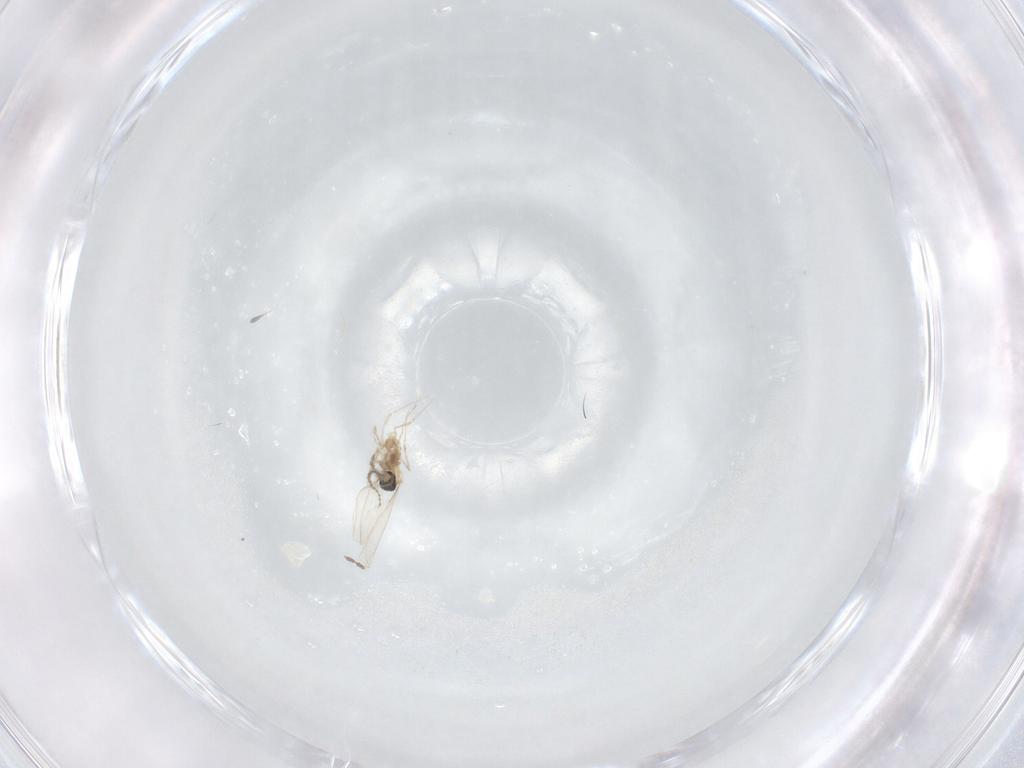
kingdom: Animalia
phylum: Arthropoda
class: Insecta
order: Diptera
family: Cecidomyiidae
